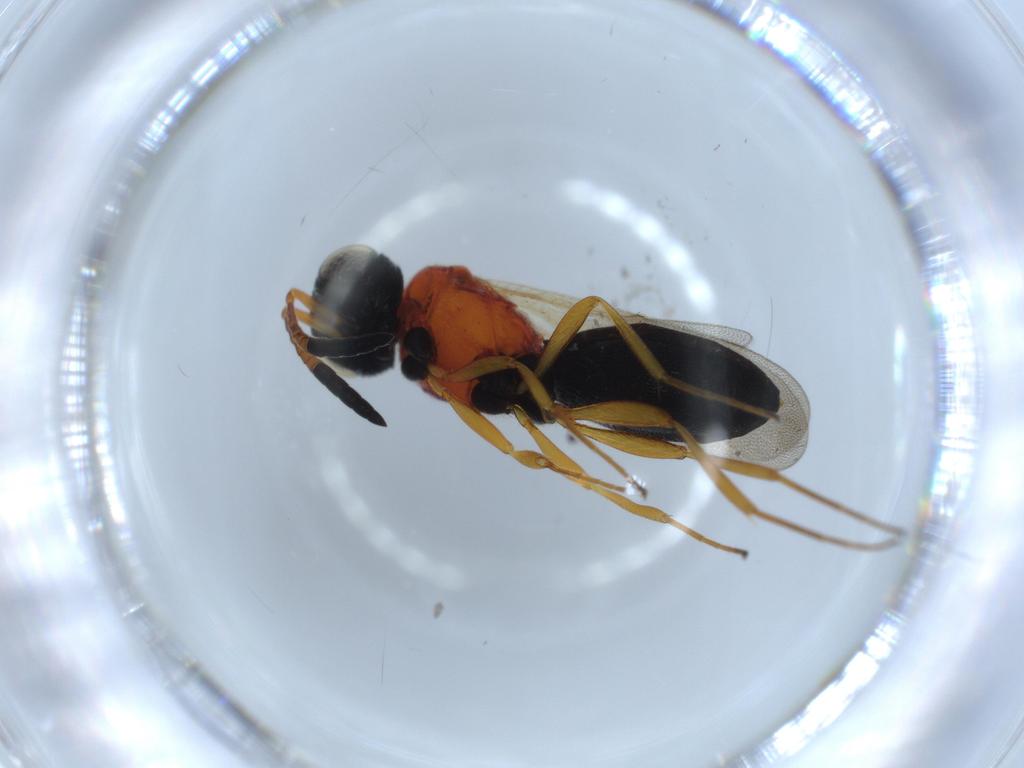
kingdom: Animalia
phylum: Arthropoda
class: Insecta
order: Hymenoptera
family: Scelionidae
